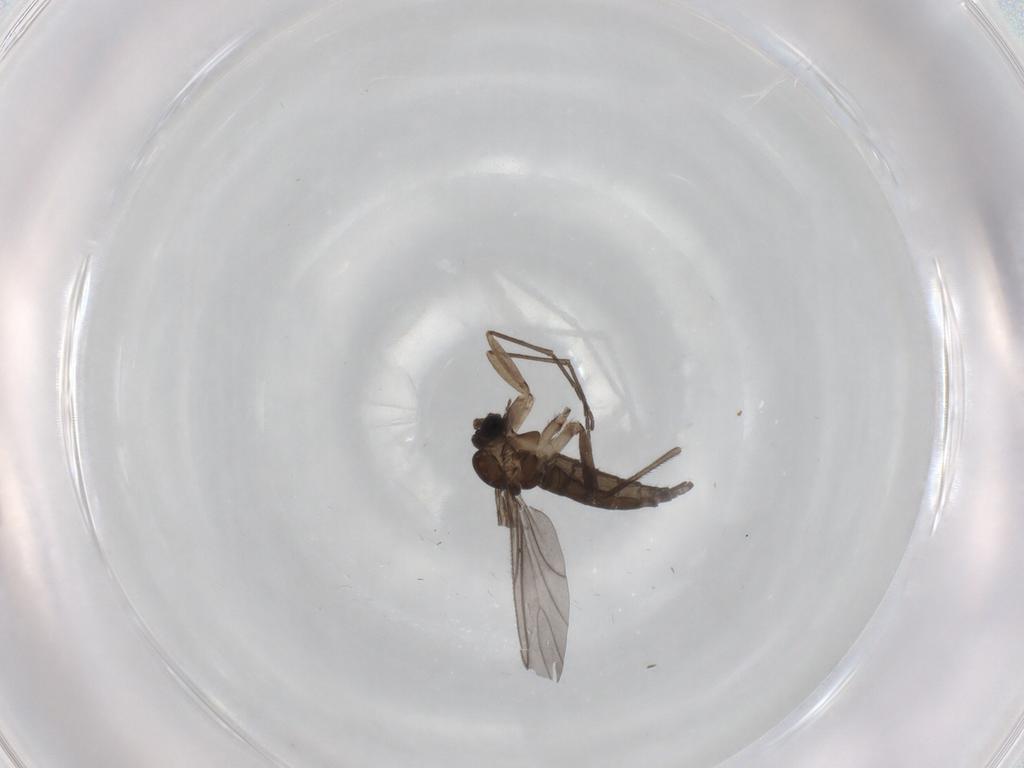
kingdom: Animalia
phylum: Arthropoda
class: Insecta
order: Diptera
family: Sciaridae
